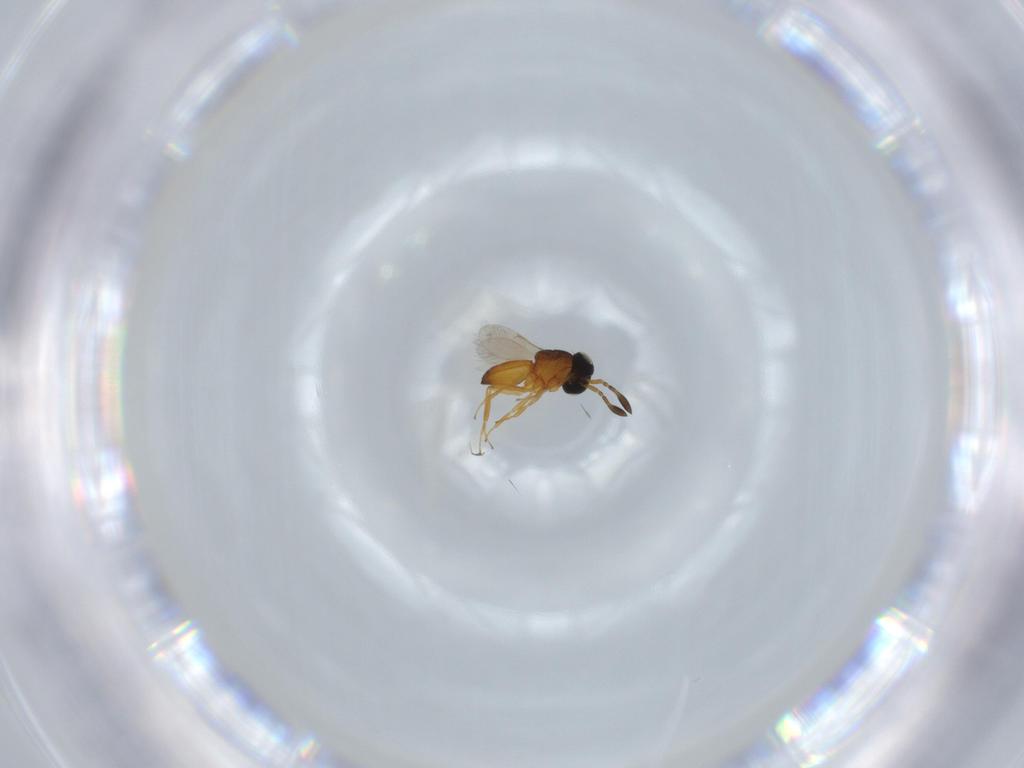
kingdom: Animalia
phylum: Arthropoda
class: Insecta
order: Hymenoptera
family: Scelionidae
